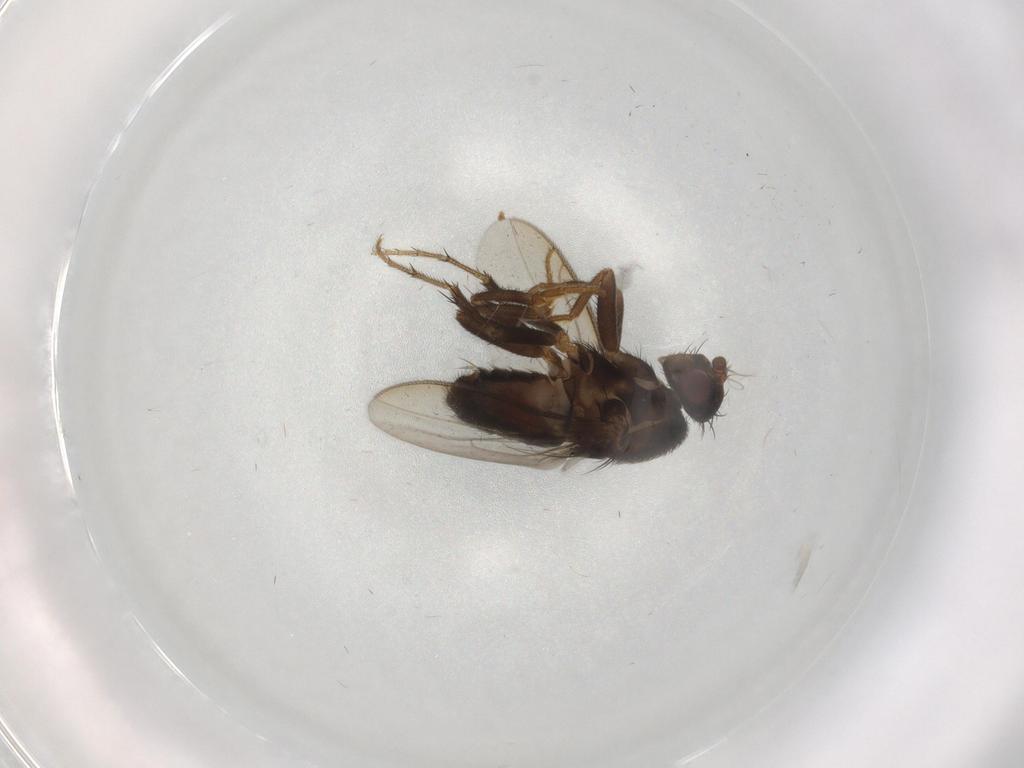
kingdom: Animalia
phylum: Arthropoda
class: Insecta
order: Diptera
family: Sphaeroceridae
